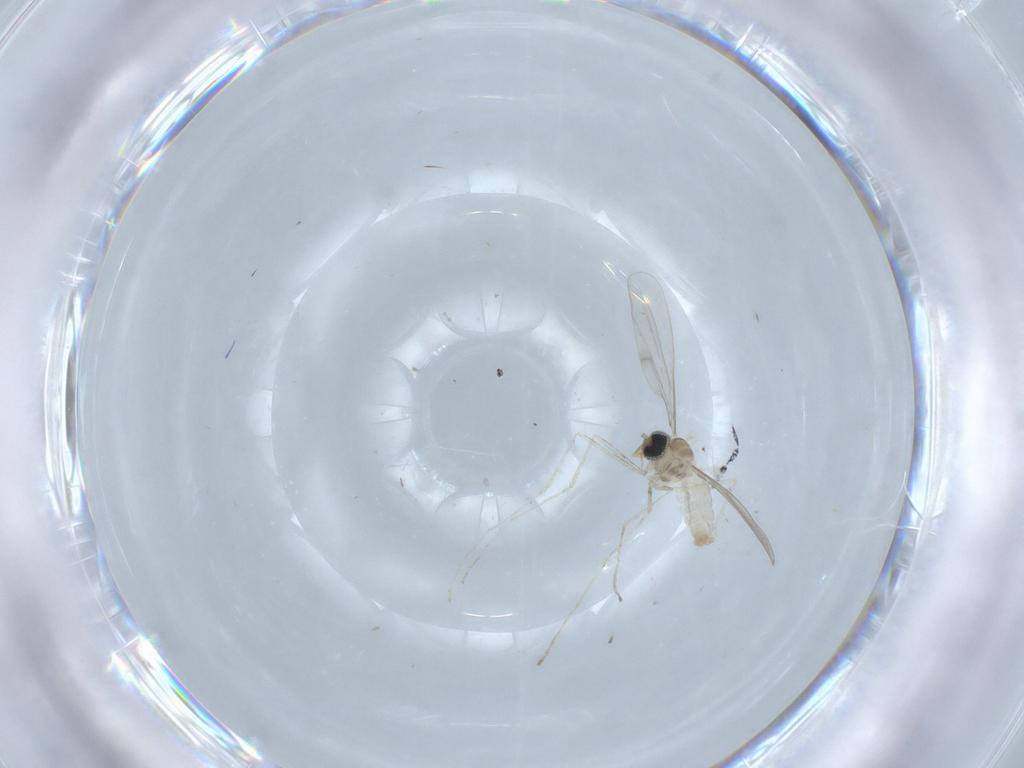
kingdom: Animalia
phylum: Arthropoda
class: Insecta
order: Diptera
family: Cecidomyiidae
